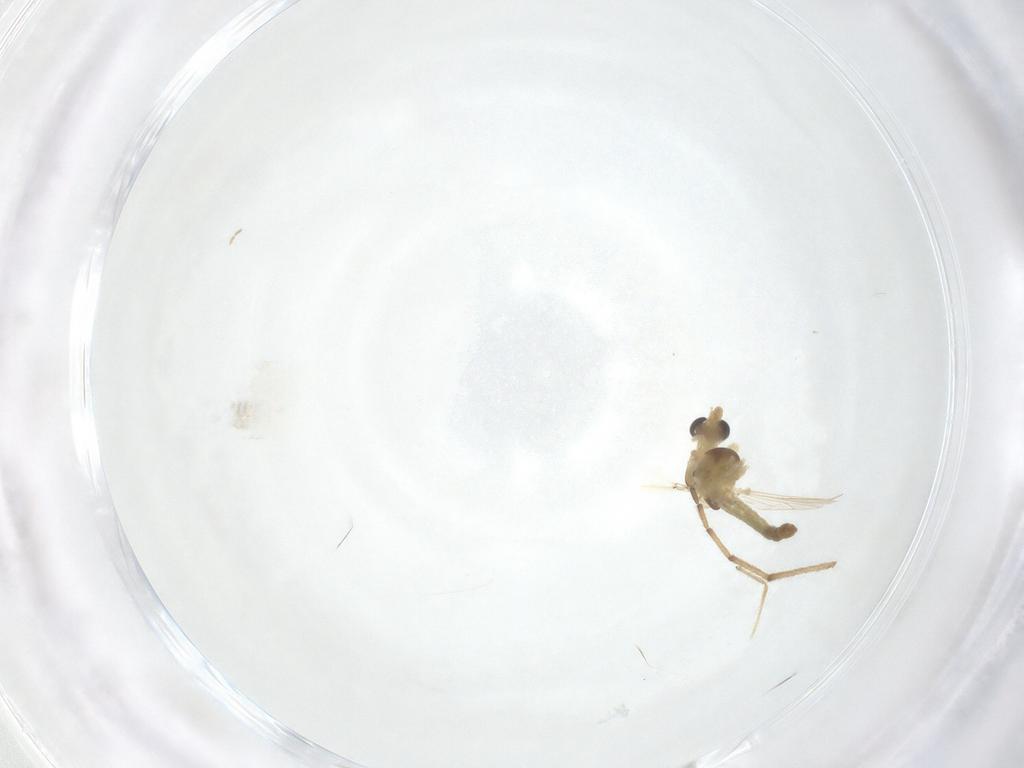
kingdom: Animalia
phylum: Arthropoda
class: Insecta
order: Diptera
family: Chironomidae
